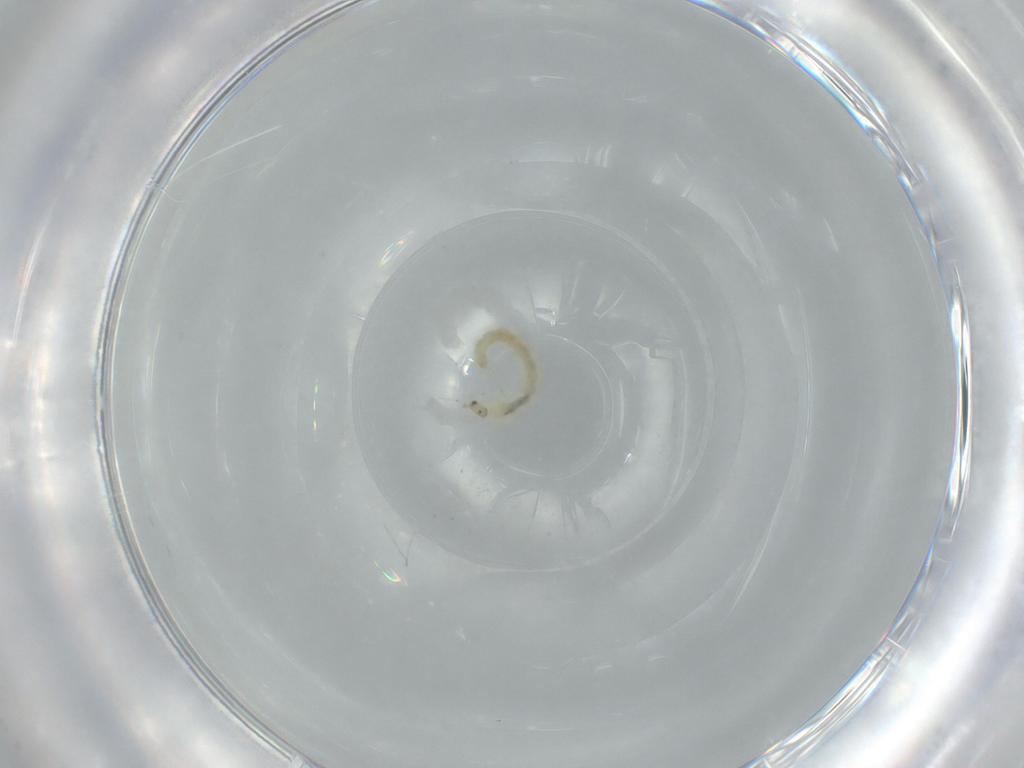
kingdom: Animalia
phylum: Arthropoda
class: Insecta
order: Diptera
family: Chironomidae
